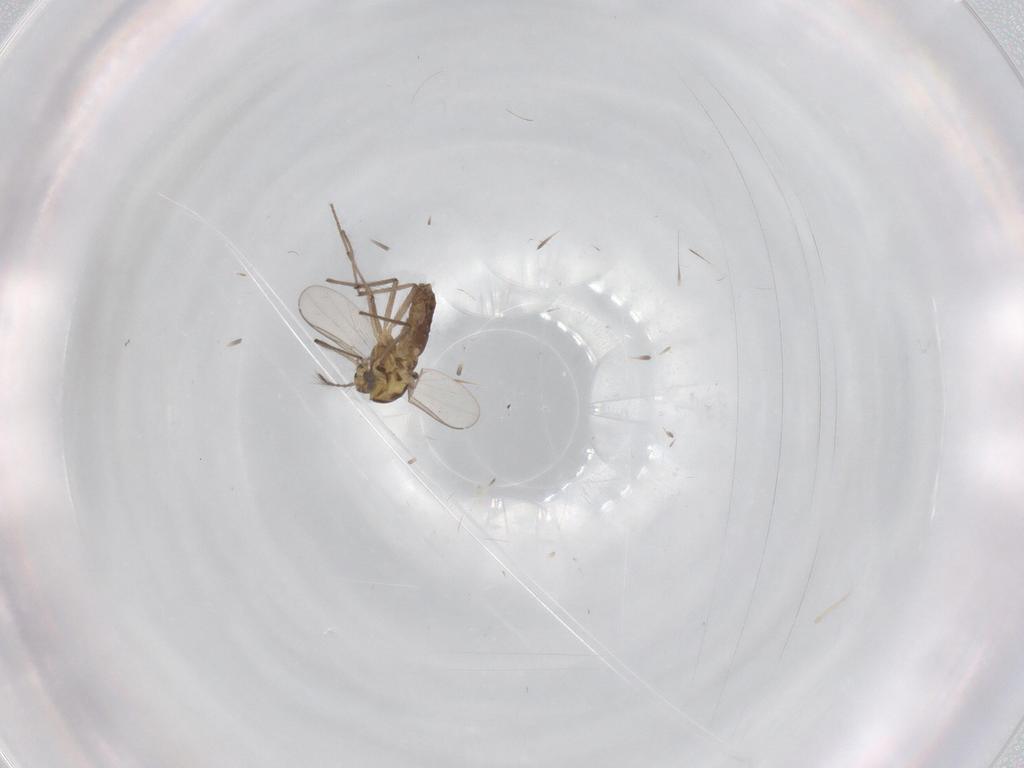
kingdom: Animalia
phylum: Arthropoda
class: Insecta
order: Diptera
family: Chironomidae
